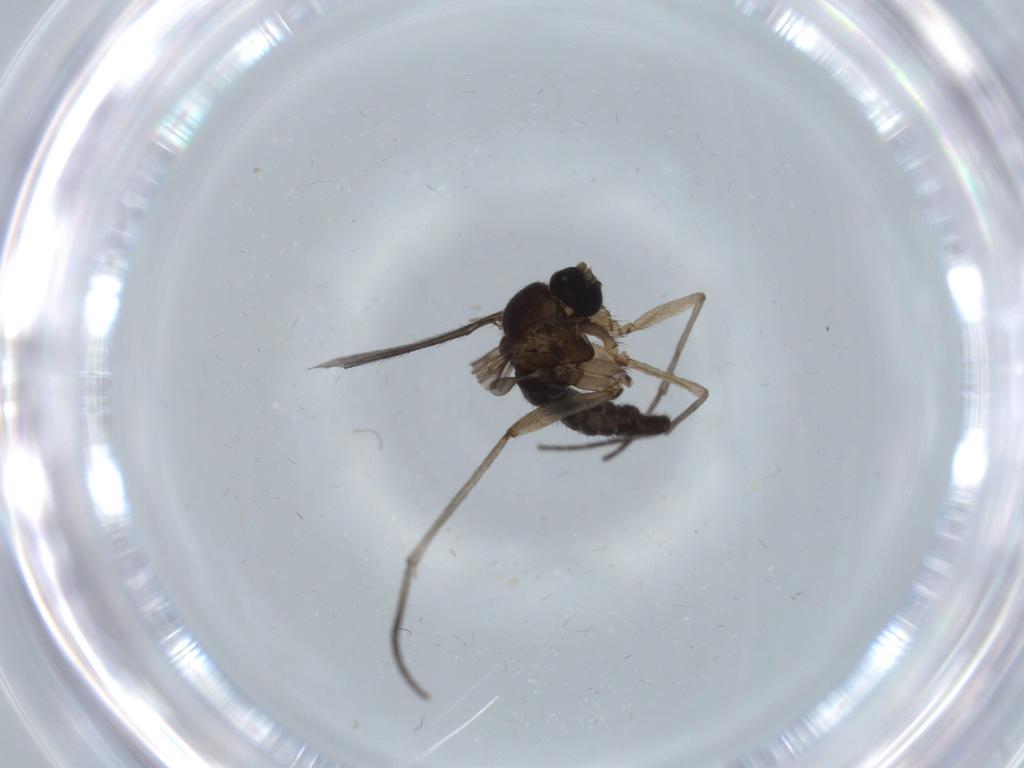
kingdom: Animalia
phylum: Arthropoda
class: Insecta
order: Diptera
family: Sciaridae
